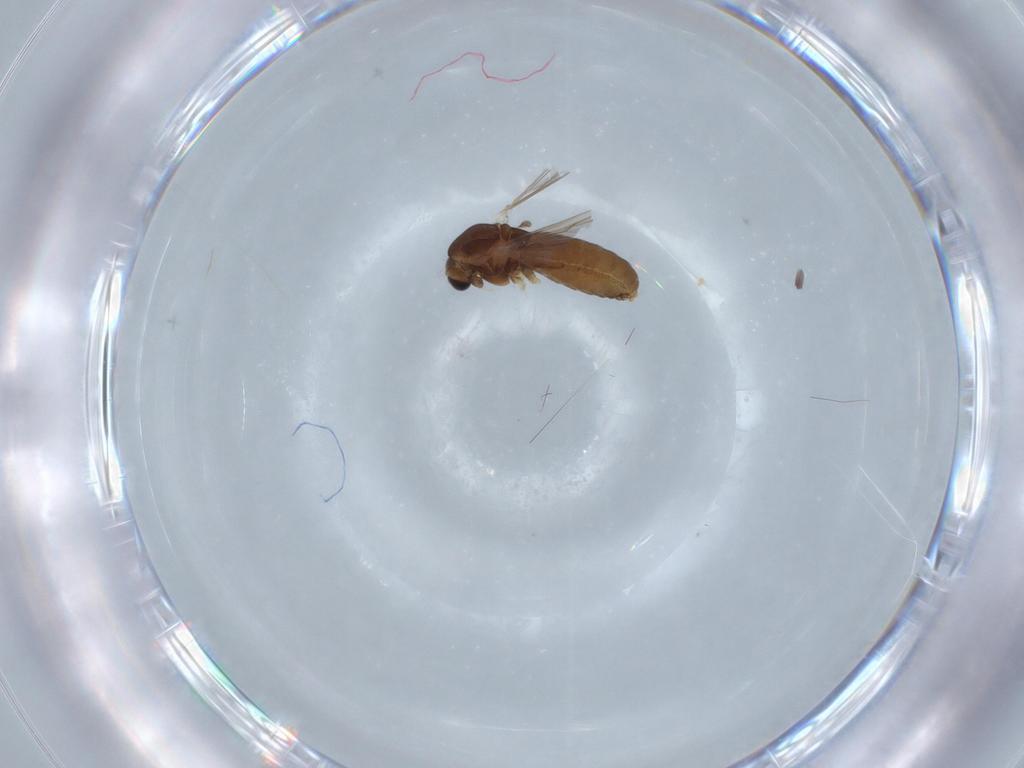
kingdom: Animalia
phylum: Arthropoda
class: Insecta
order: Diptera
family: Chironomidae
